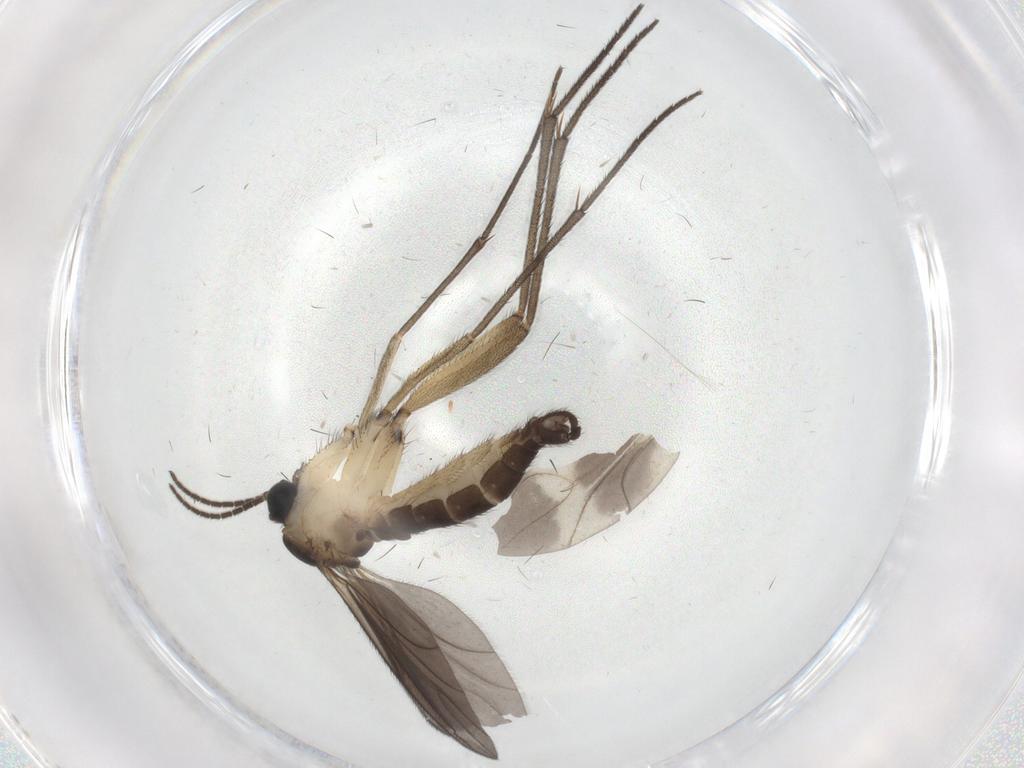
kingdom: Animalia
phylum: Arthropoda
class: Insecta
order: Diptera
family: Sciaridae
